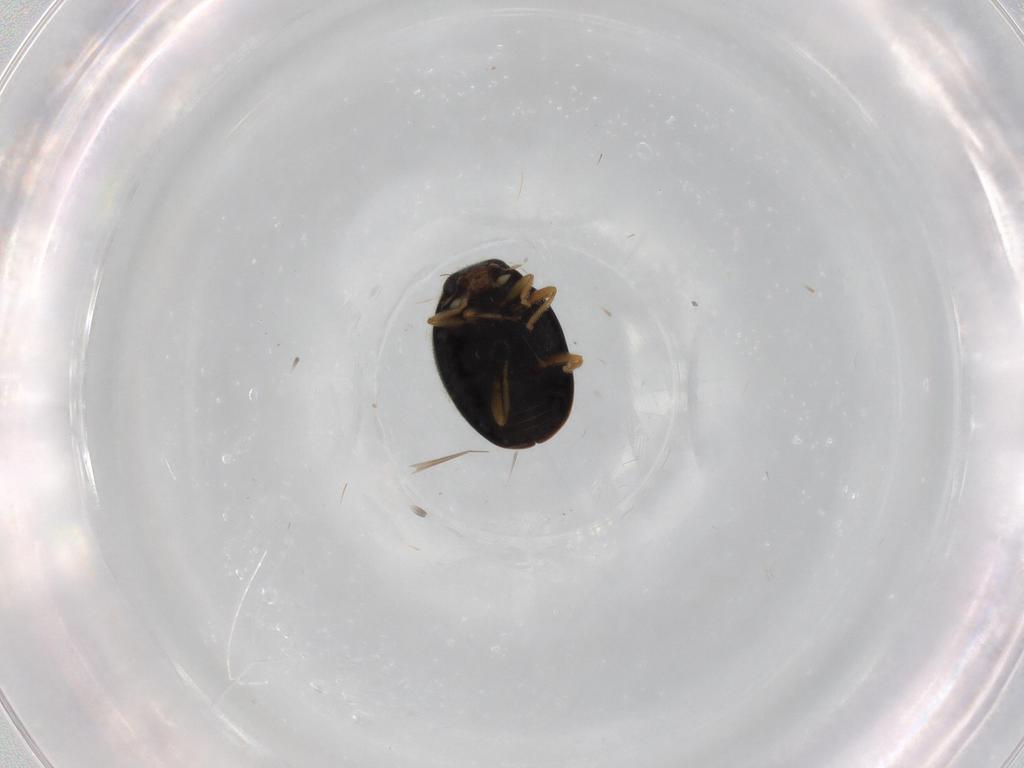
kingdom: Animalia
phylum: Arthropoda
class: Insecta
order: Coleoptera
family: Coccinellidae
